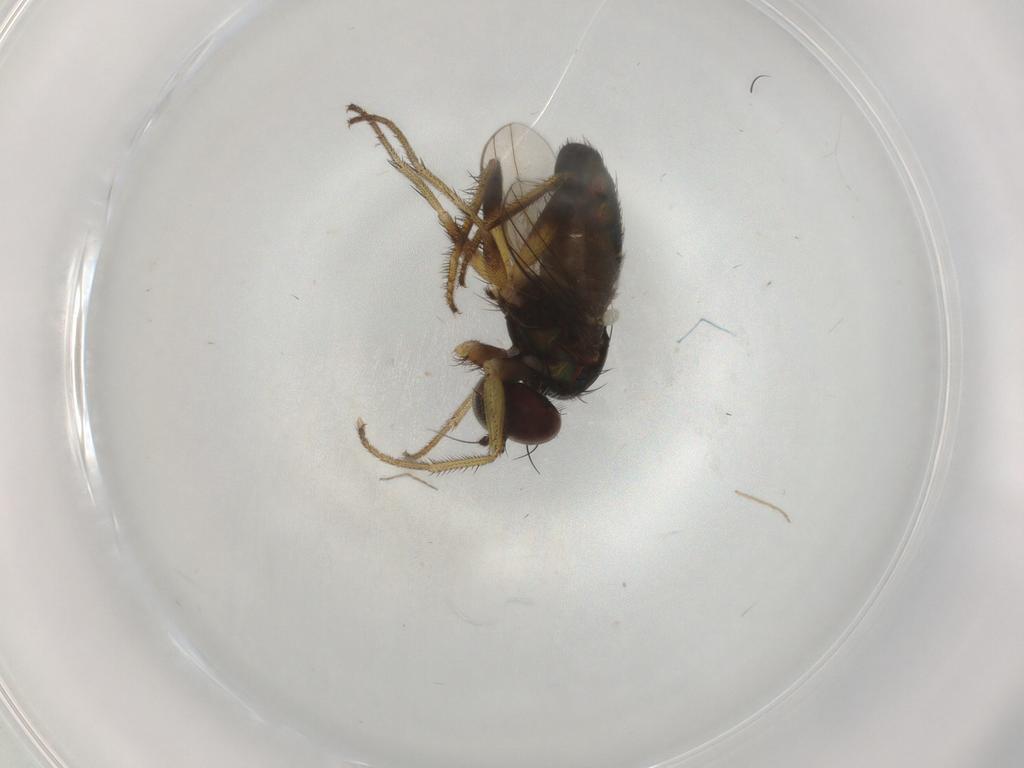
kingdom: Animalia
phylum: Arthropoda
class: Insecta
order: Diptera
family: Dolichopodidae
